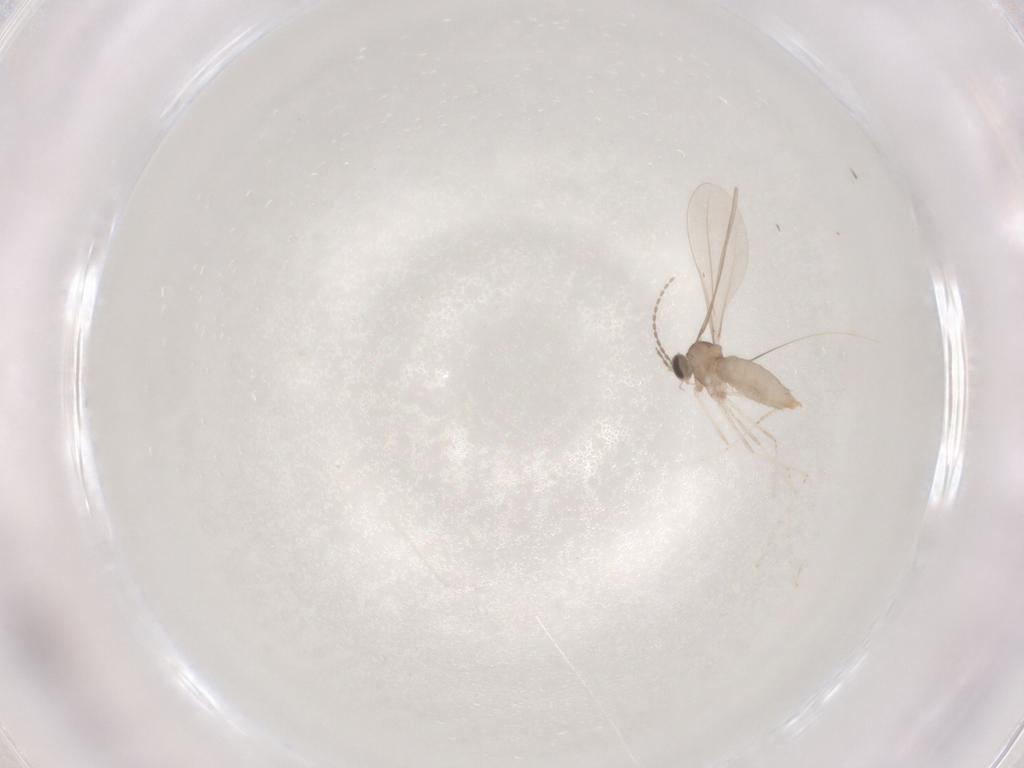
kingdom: Animalia
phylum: Arthropoda
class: Insecta
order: Diptera
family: Cecidomyiidae
